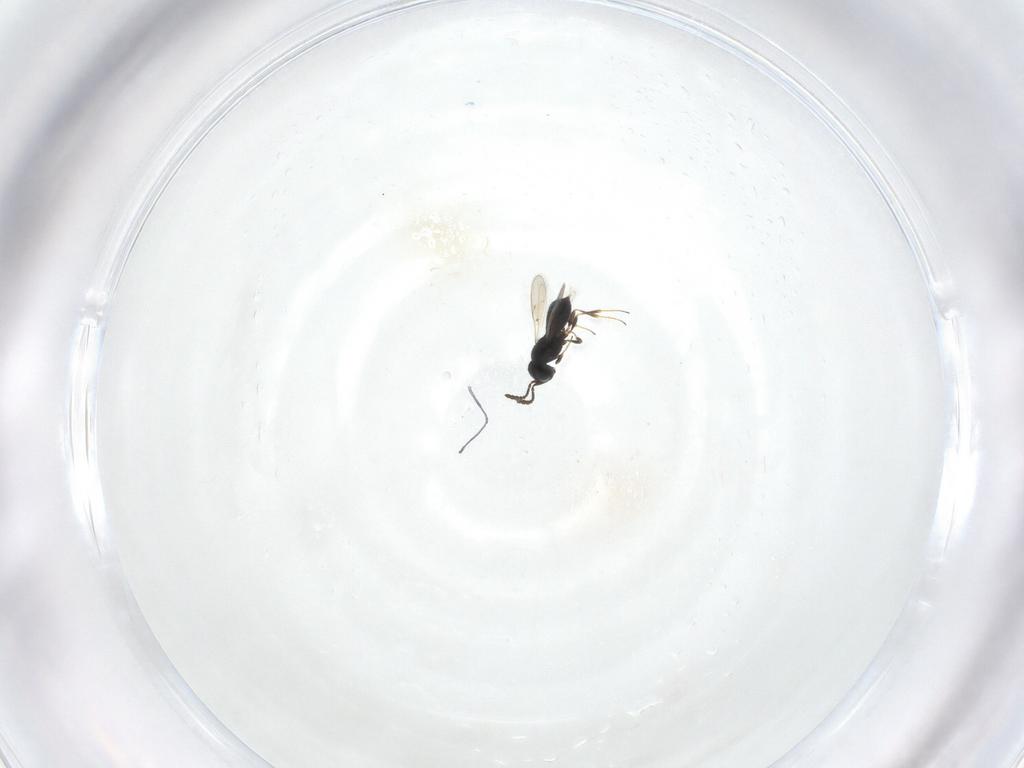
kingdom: Animalia
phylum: Arthropoda
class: Insecta
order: Hymenoptera
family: Scelionidae
